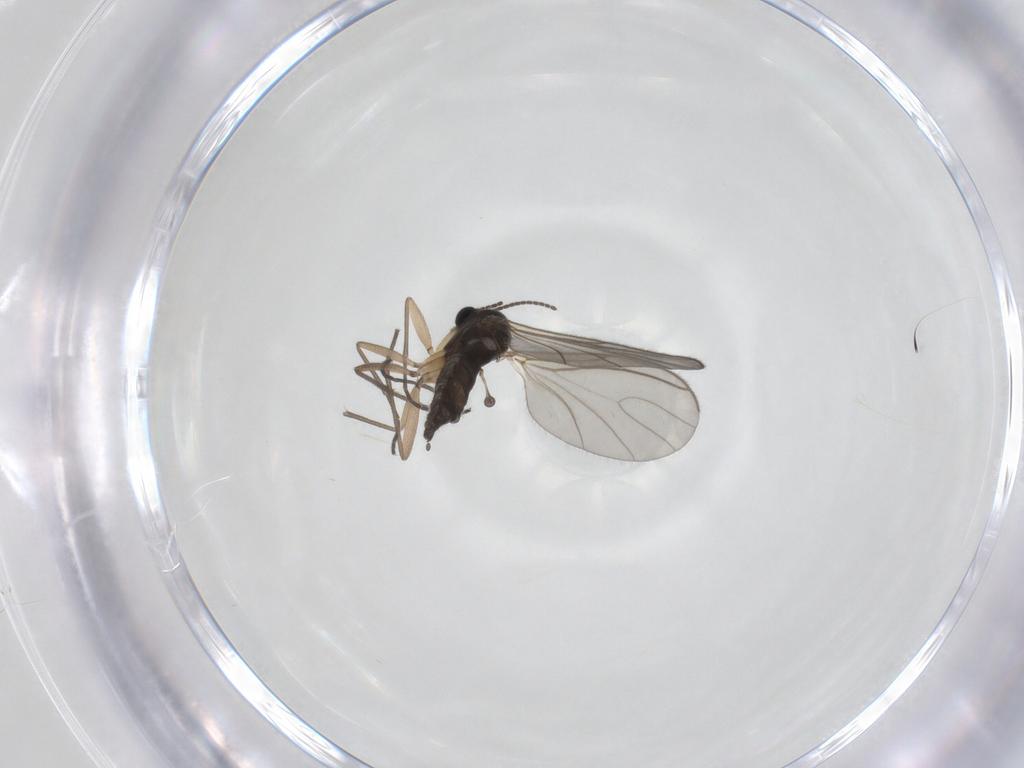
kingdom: Animalia
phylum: Arthropoda
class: Insecta
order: Diptera
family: Sciaridae
